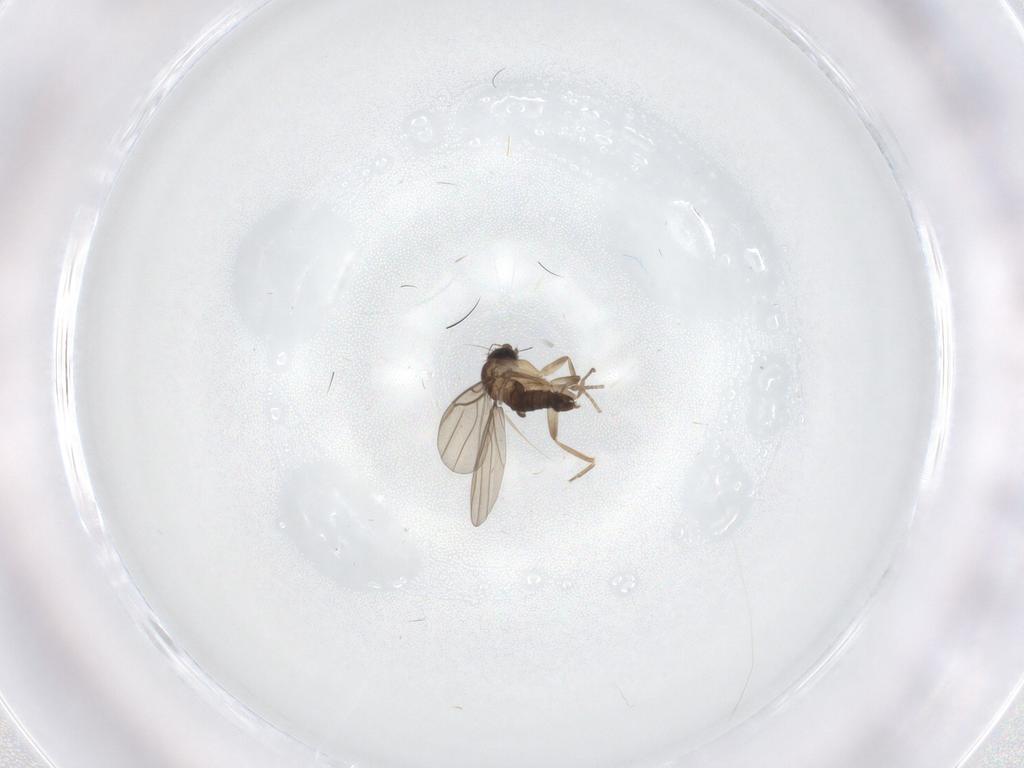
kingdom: Animalia
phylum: Arthropoda
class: Insecta
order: Diptera
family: Phoridae
